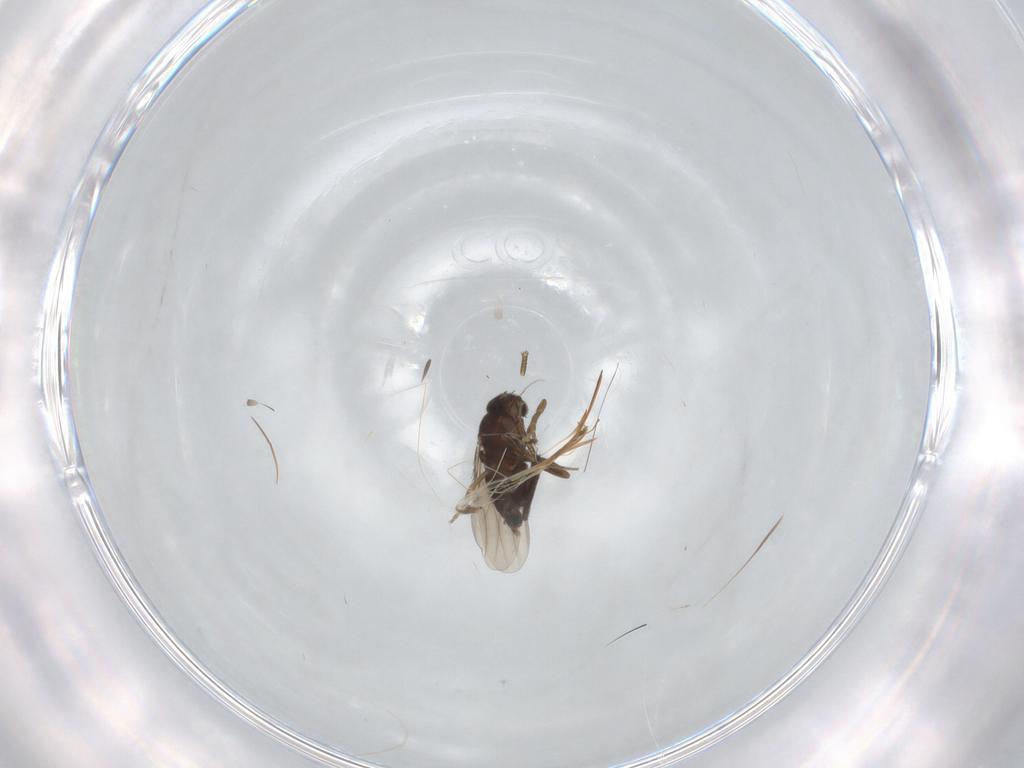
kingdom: Animalia
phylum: Arthropoda
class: Insecta
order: Diptera
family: Phoridae
